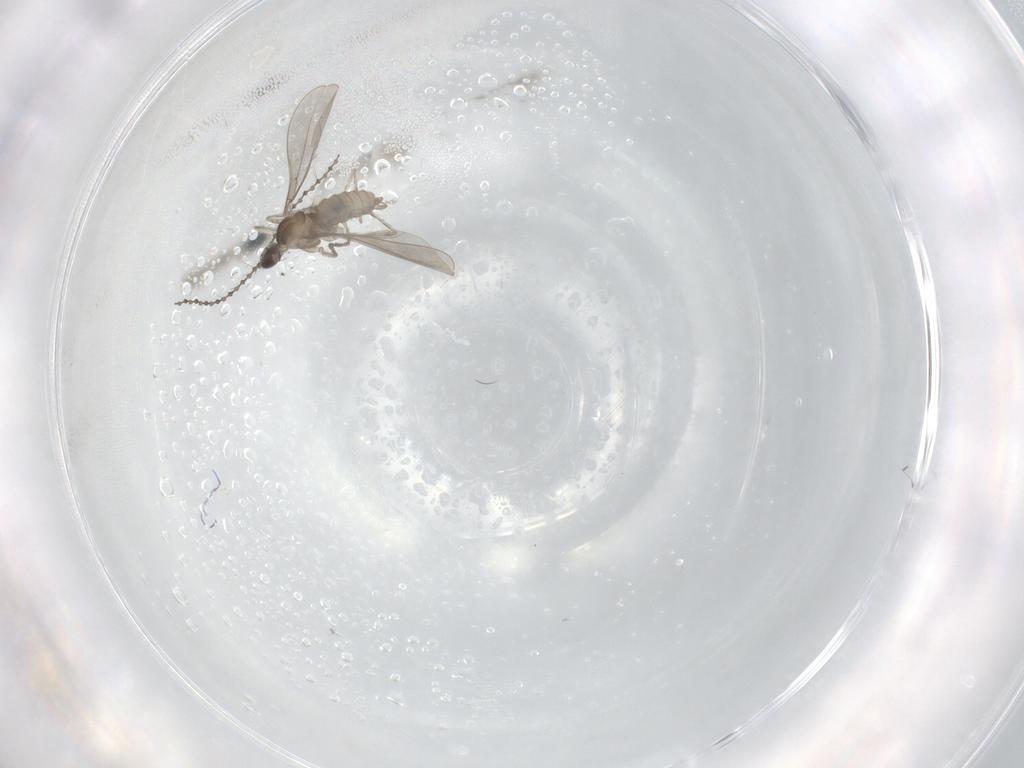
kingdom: Animalia
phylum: Arthropoda
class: Insecta
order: Diptera
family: Cecidomyiidae
